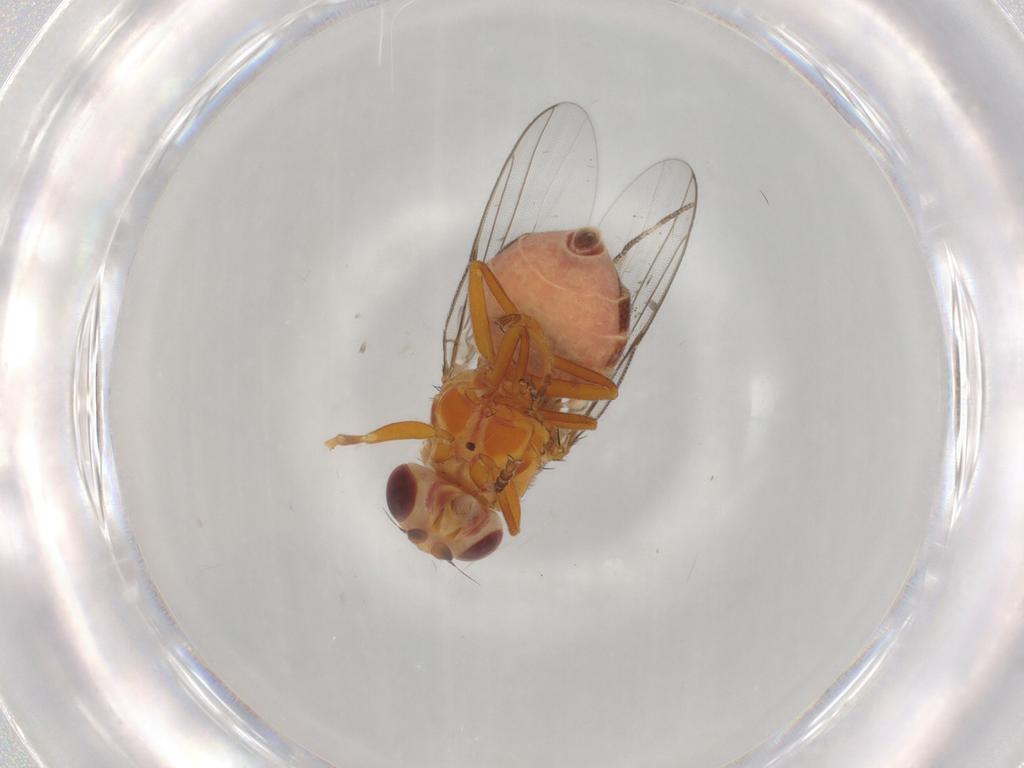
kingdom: Animalia
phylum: Arthropoda
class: Insecta
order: Diptera
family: Chloropidae
